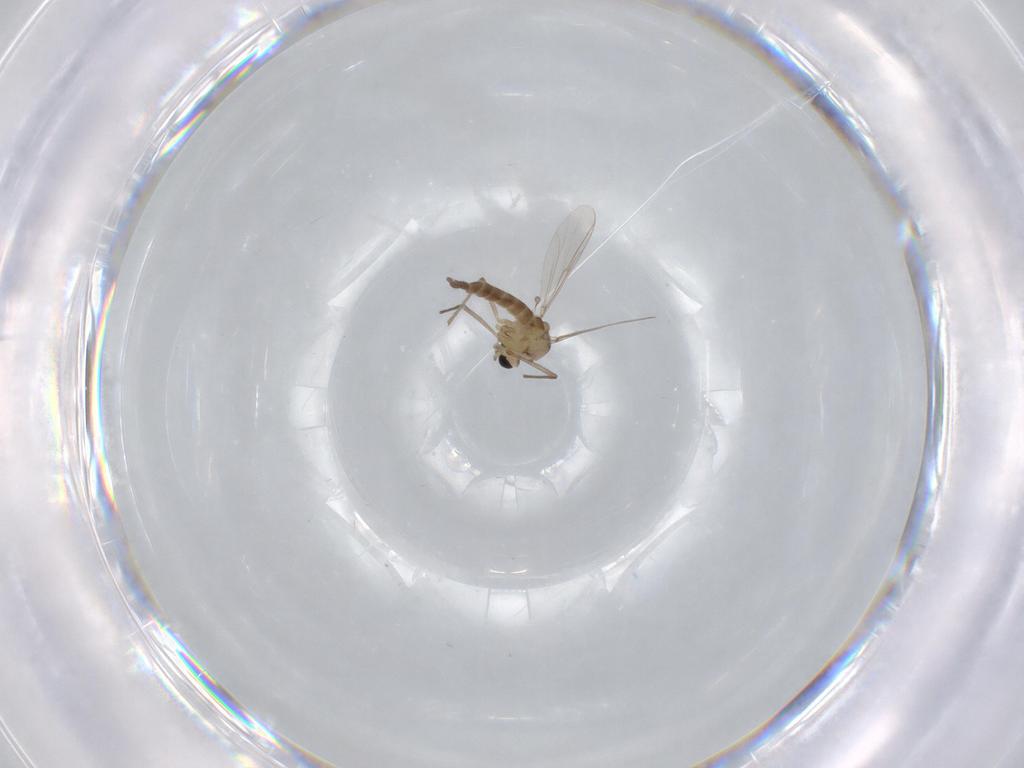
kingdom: Animalia
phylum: Arthropoda
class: Insecta
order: Diptera
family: Chironomidae
